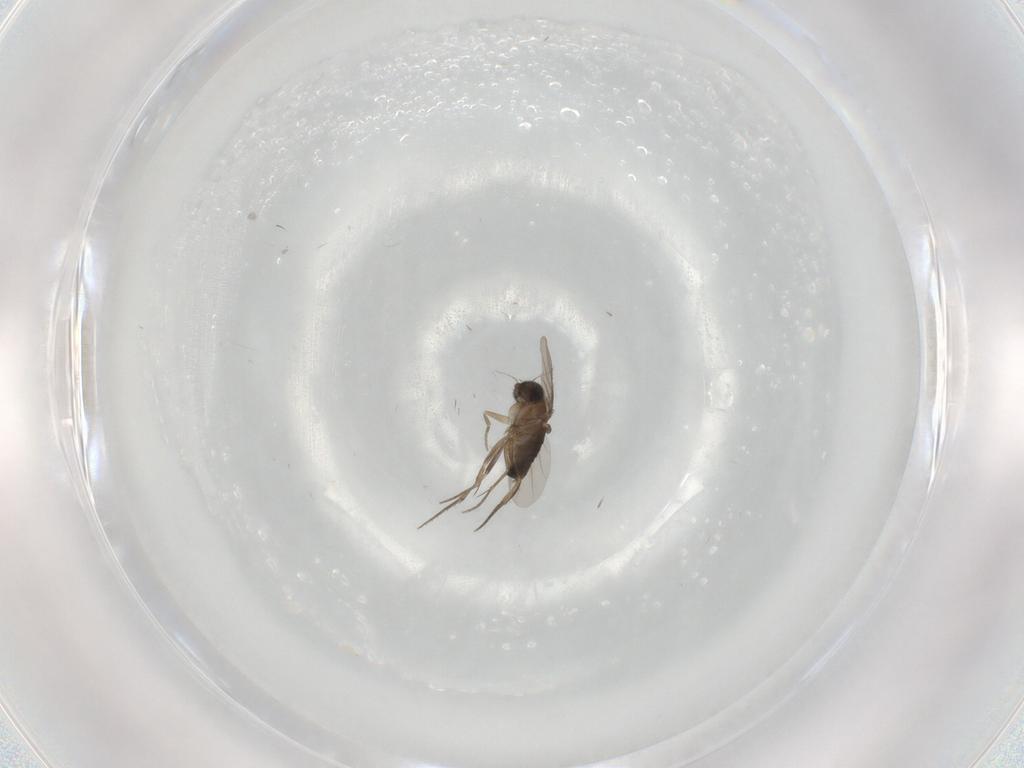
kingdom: Animalia
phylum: Arthropoda
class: Insecta
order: Diptera
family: Phoridae
